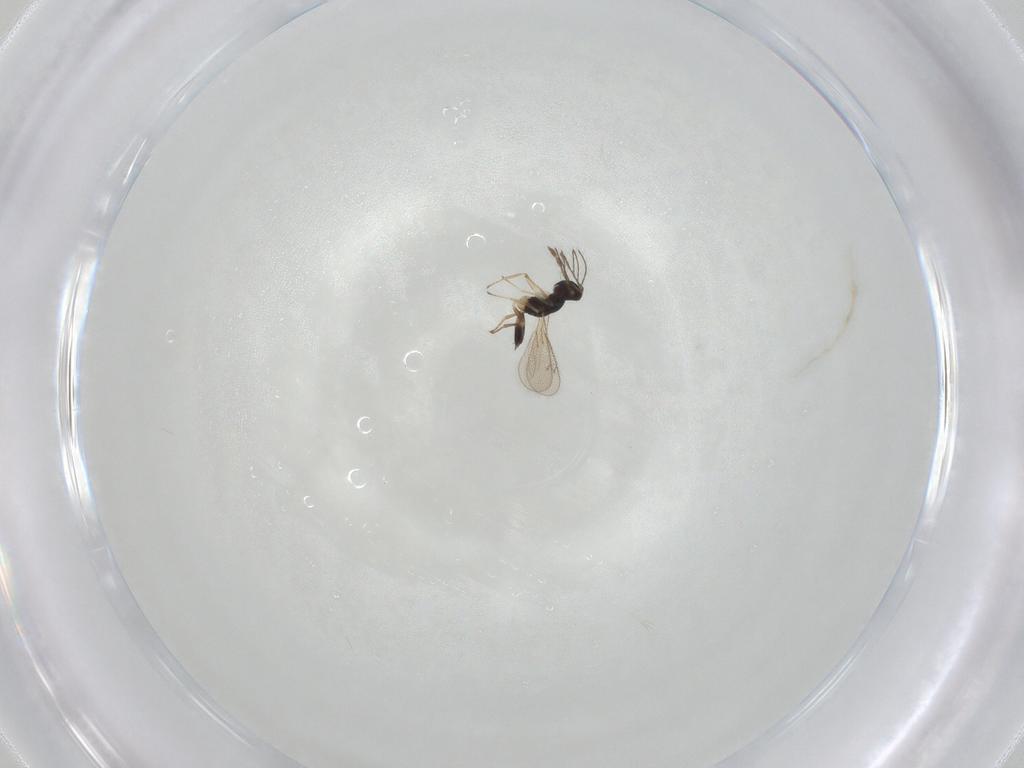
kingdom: Animalia
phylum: Arthropoda
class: Insecta
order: Hymenoptera
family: Eulophidae
